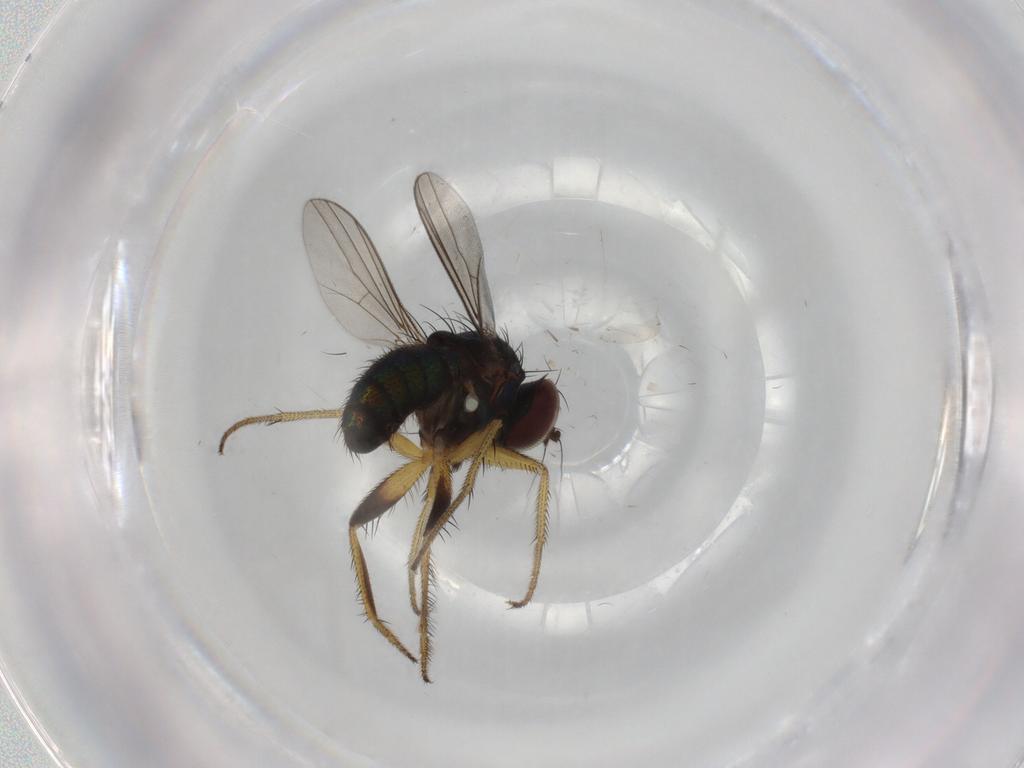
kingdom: Animalia
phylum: Arthropoda
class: Insecta
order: Diptera
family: Dolichopodidae
